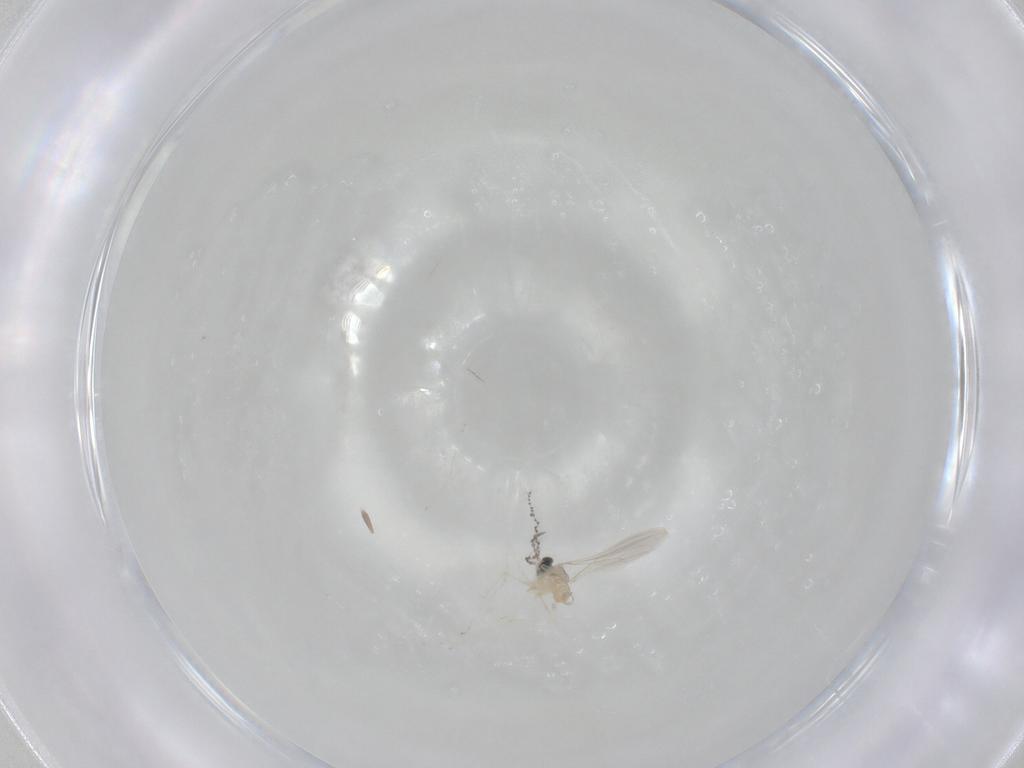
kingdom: Animalia
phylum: Arthropoda
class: Insecta
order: Diptera
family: Cecidomyiidae
